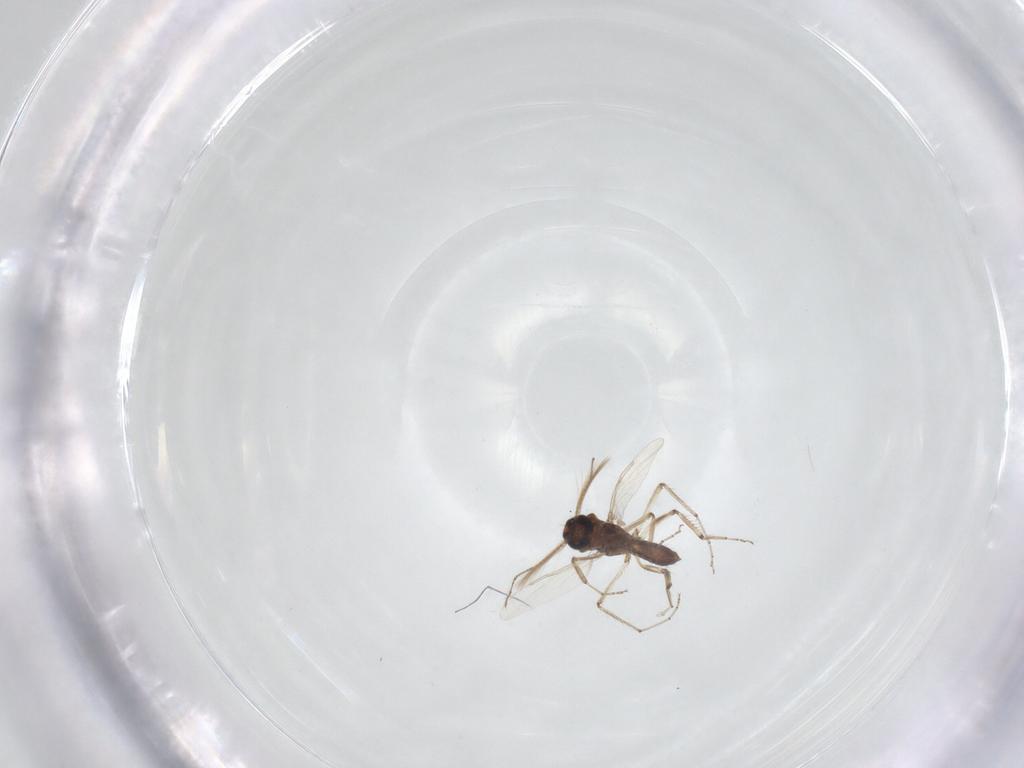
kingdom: Animalia
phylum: Arthropoda
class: Insecta
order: Diptera
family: Ceratopogonidae
